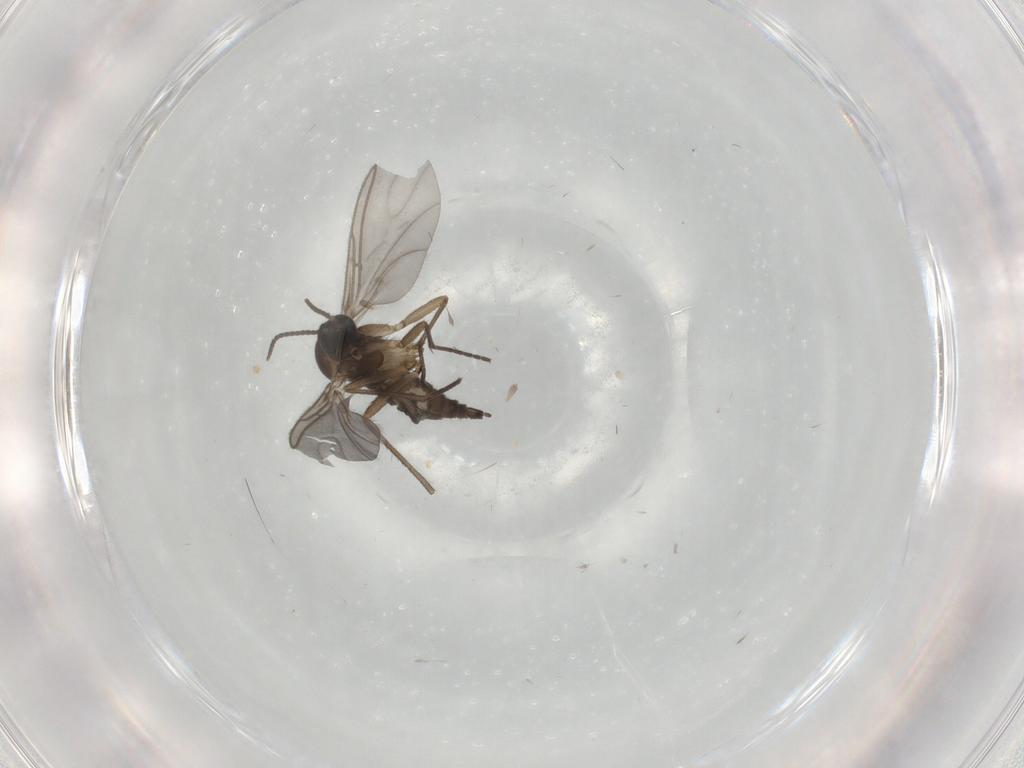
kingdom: Animalia
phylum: Arthropoda
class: Insecta
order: Diptera
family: Sciaridae
